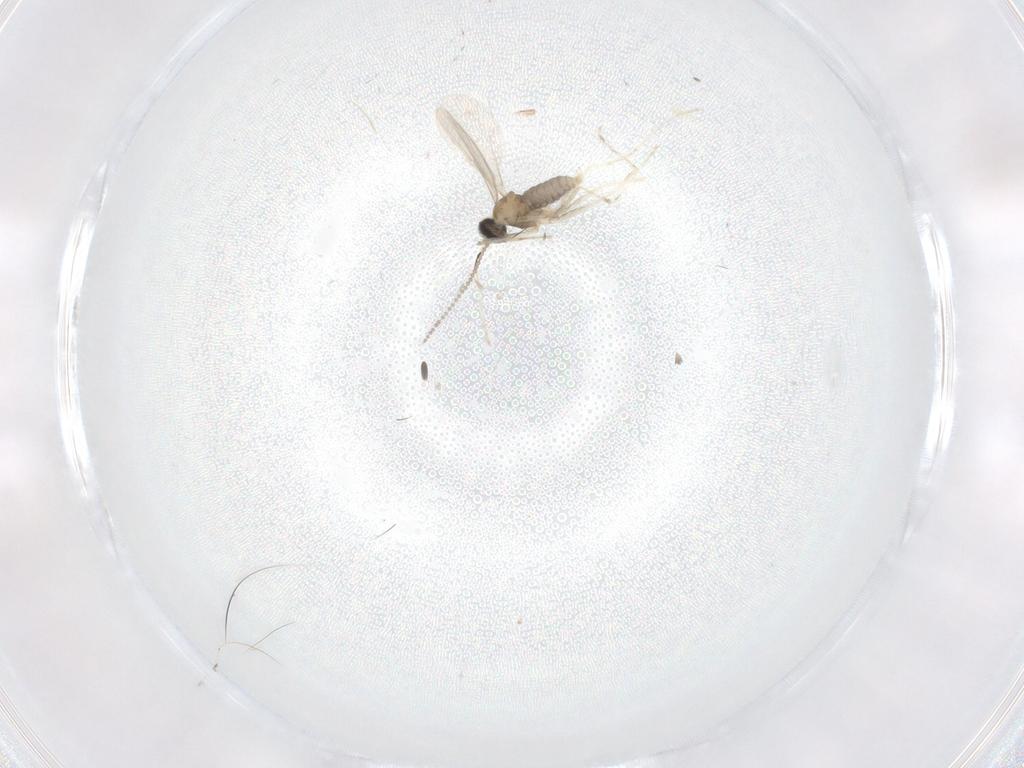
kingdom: Animalia
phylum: Arthropoda
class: Insecta
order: Diptera
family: Cecidomyiidae
